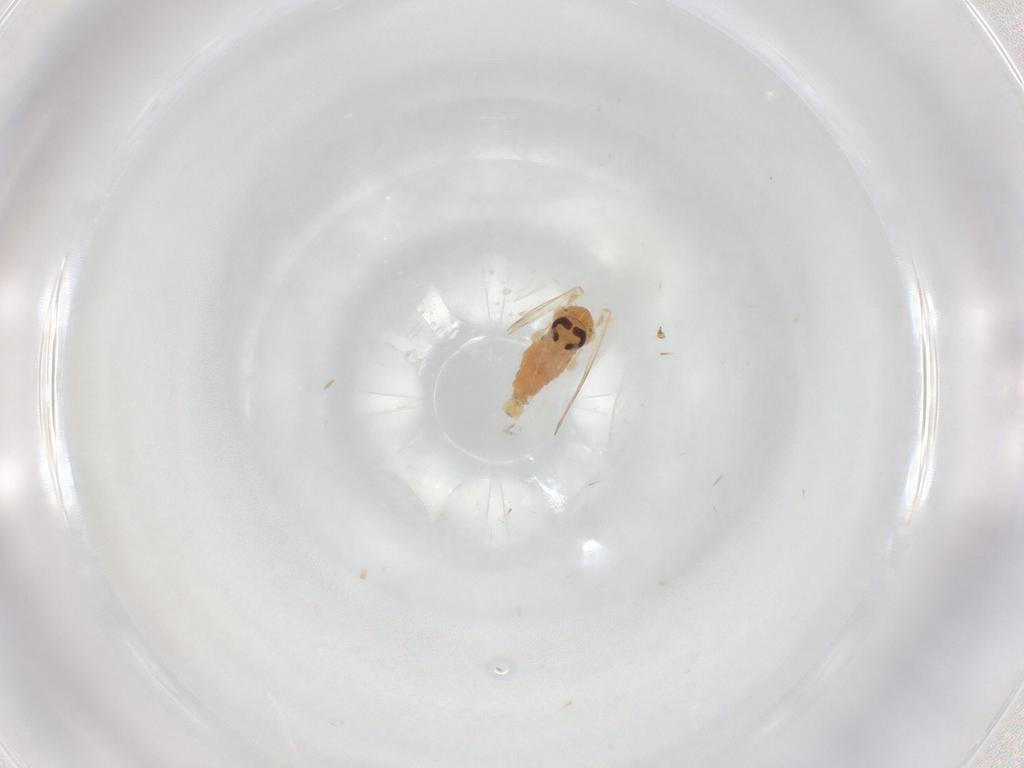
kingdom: Animalia
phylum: Arthropoda
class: Insecta
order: Diptera
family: Psychodidae
